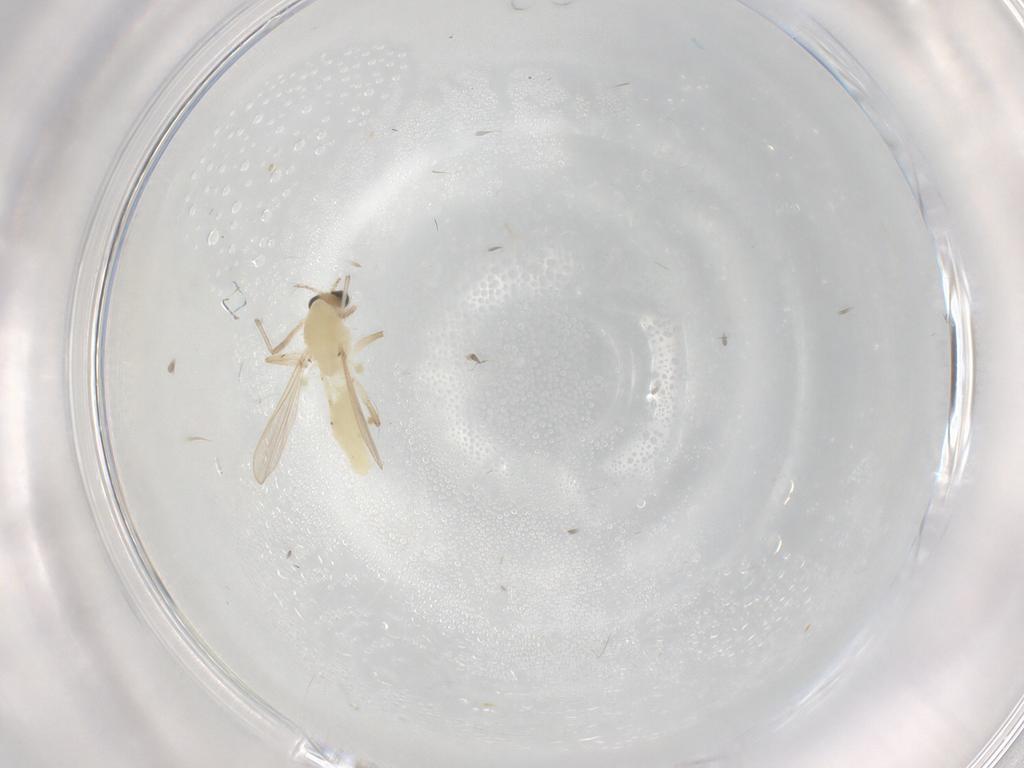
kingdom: Animalia
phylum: Arthropoda
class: Insecta
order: Diptera
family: Chironomidae
